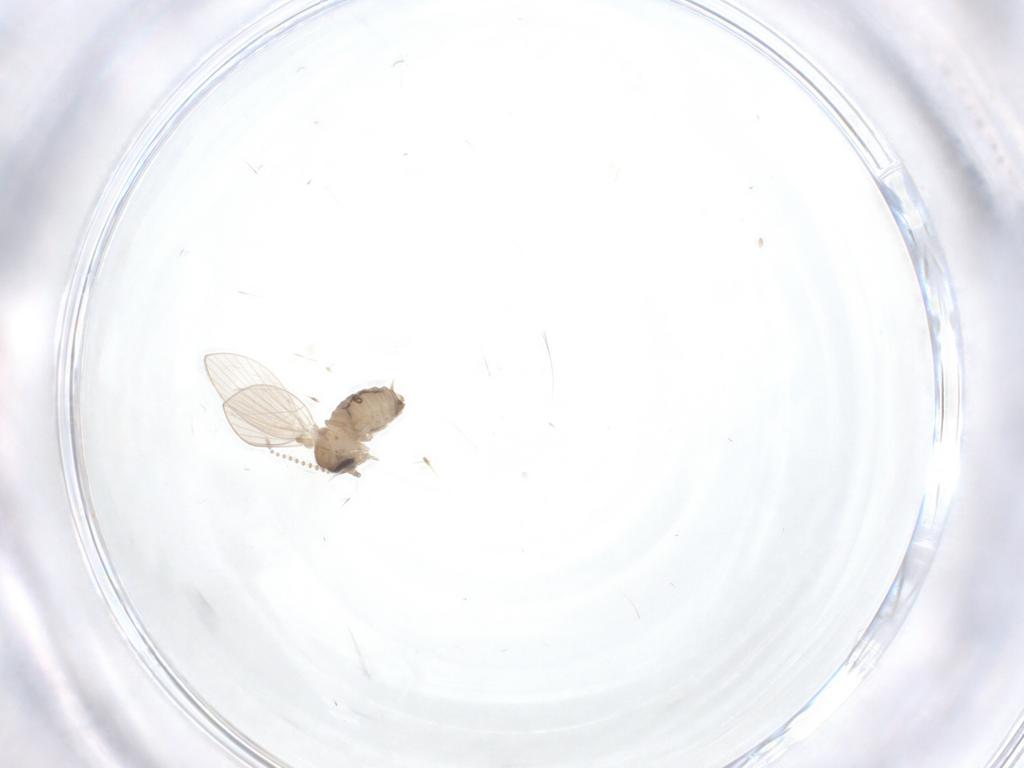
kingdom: Animalia
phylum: Arthropoda
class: Insecta
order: Diptera
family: Psychodidae
